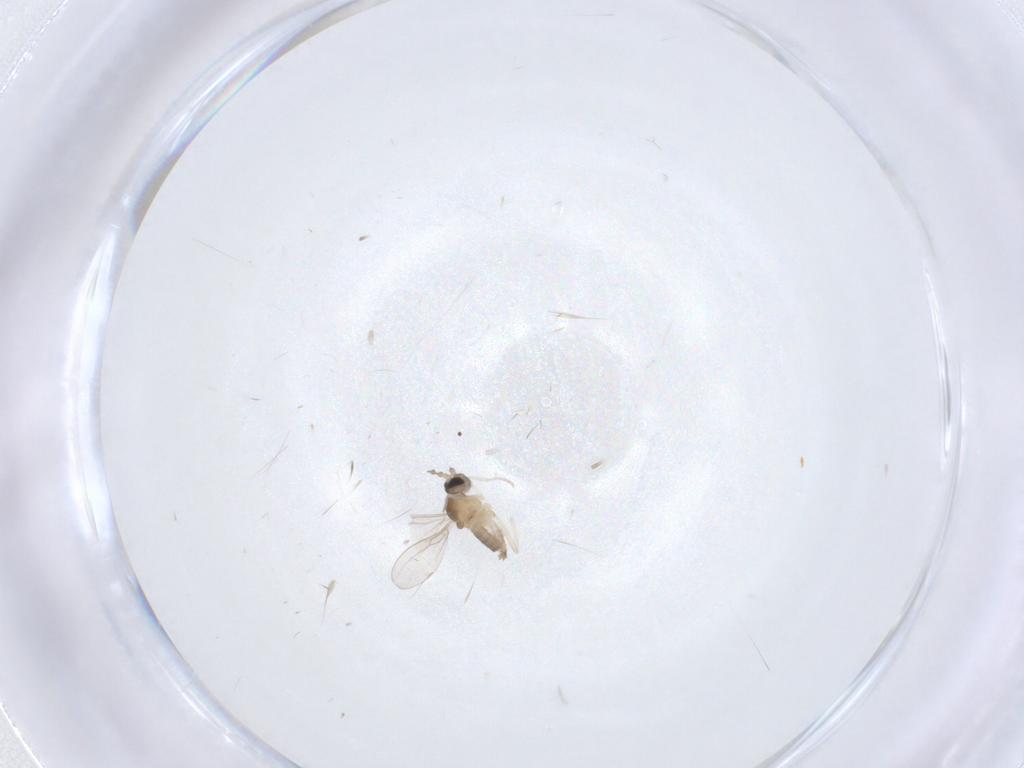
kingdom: Animalia
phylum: Arthropoda
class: Insecta
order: Diptera
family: Cecidomyiidae
